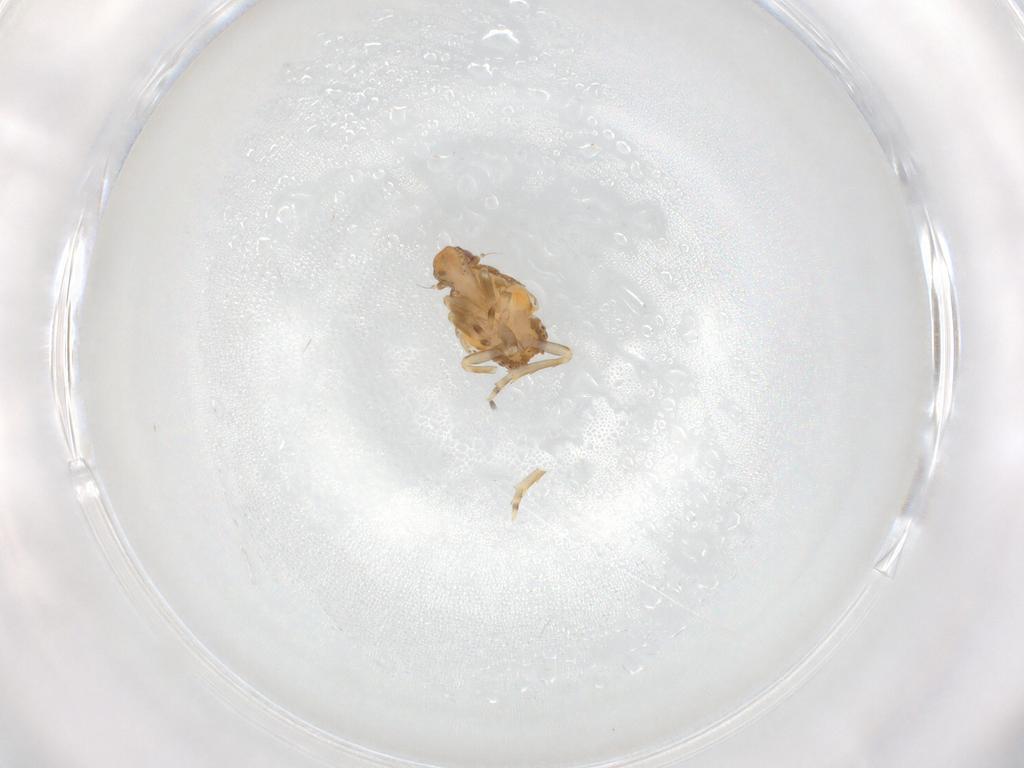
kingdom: Animalia
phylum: Arthropoda
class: Insecta
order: Hemiptera
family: Flatidae
